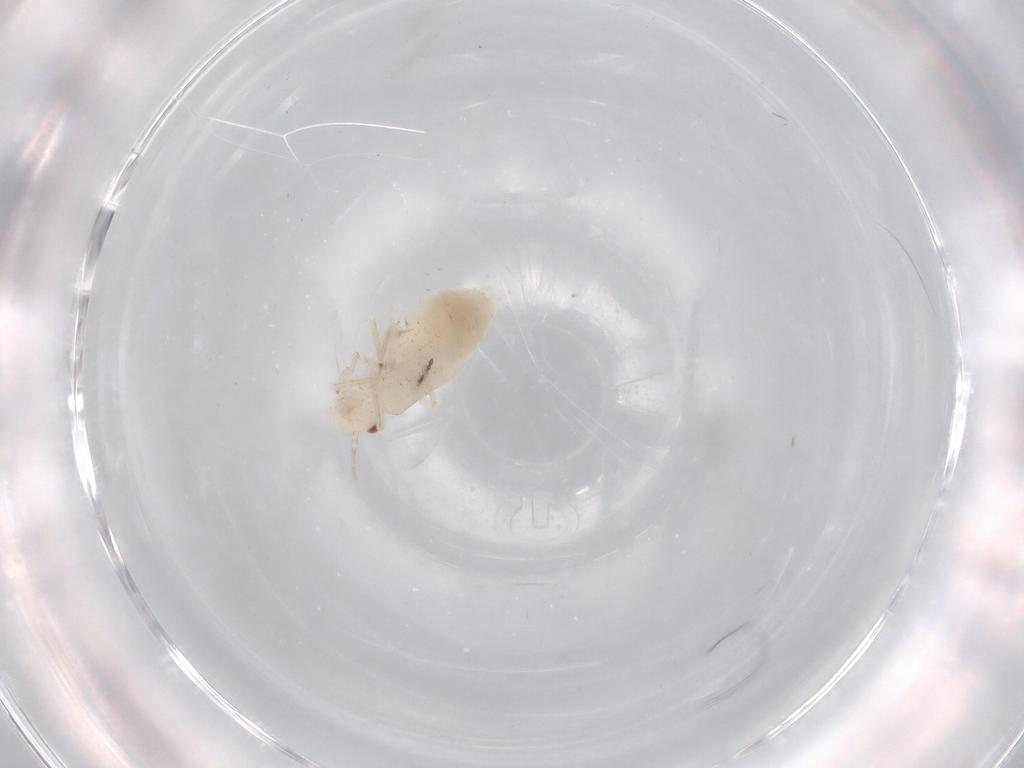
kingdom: Animalia
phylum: Arthropoda
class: Insecta
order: Psocodea
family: Caeciliusidae
